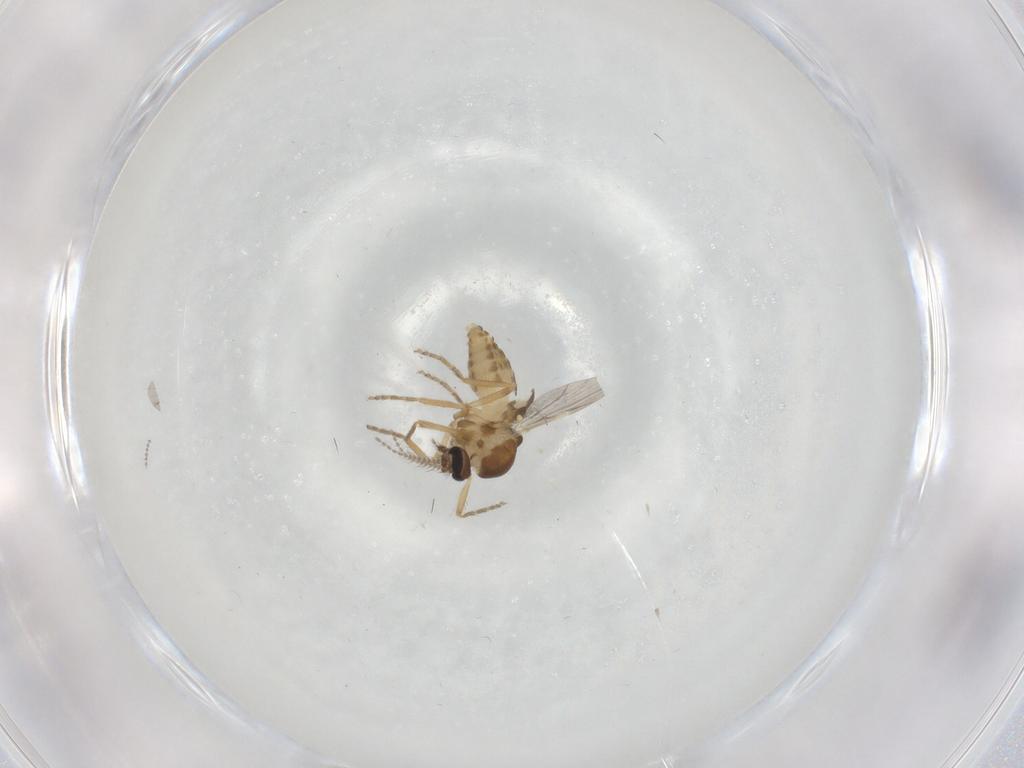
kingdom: Animalia
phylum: Arthropoda
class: Insecta
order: Diptera
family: Ceratopogonidae
